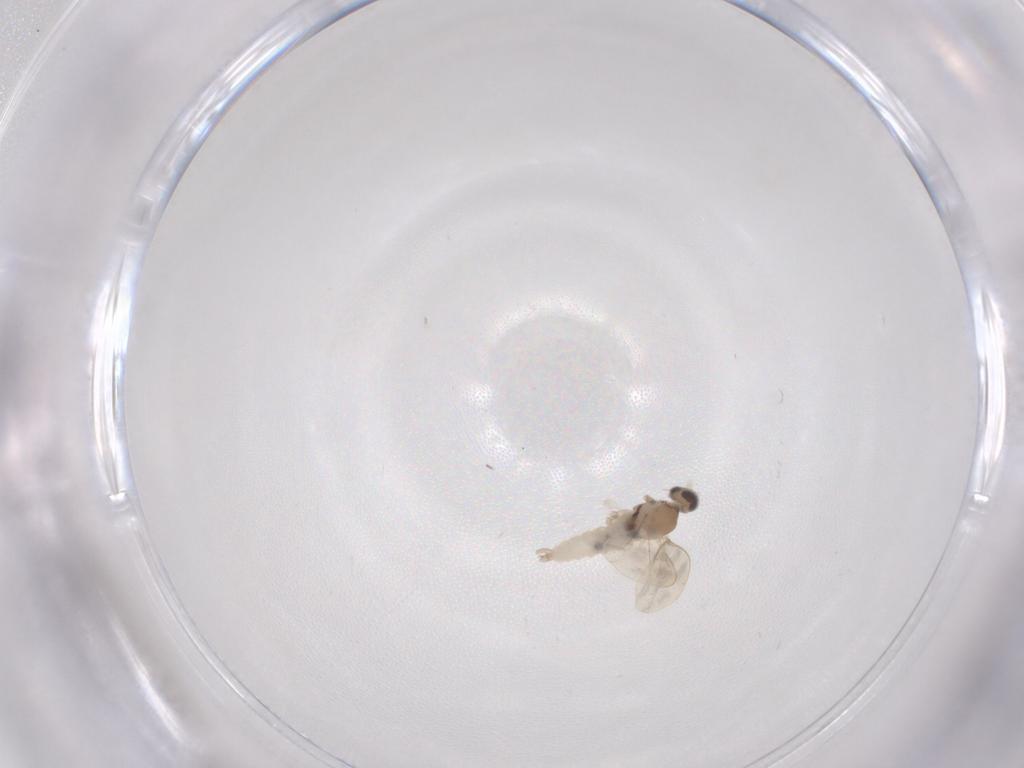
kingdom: Animalia
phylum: Arthropoda
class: Insecta
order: Diptera
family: Cecidomyiidae
